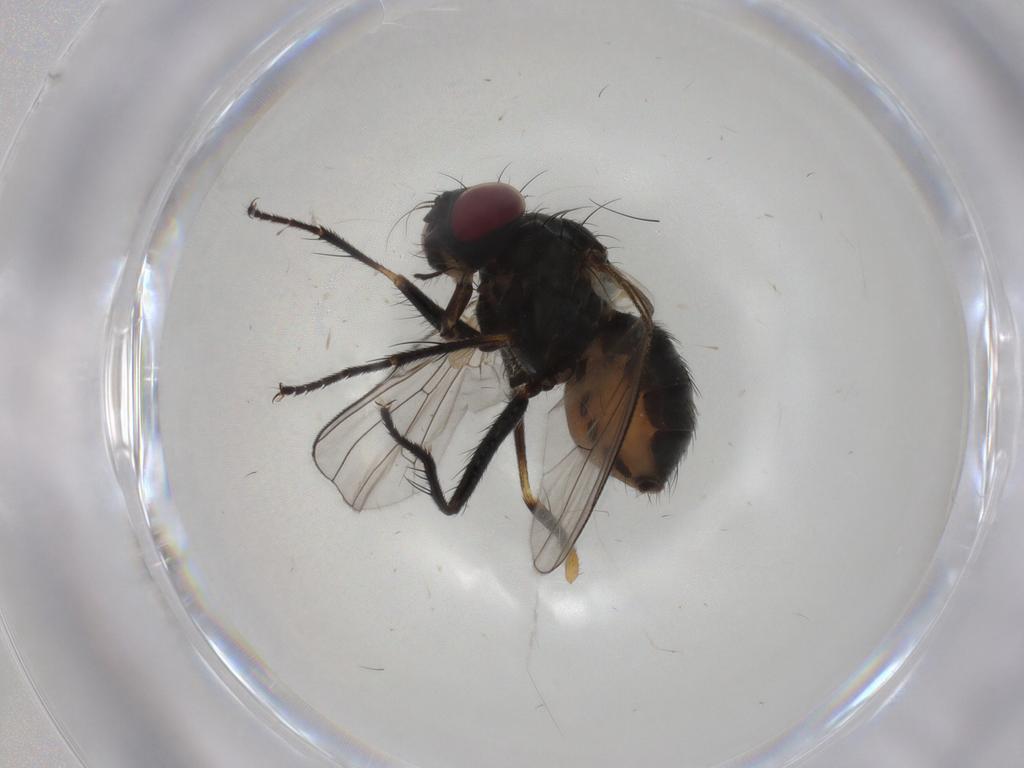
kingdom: Animalia
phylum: Arthropoda
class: Insecta
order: Diptera
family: Muscidae
